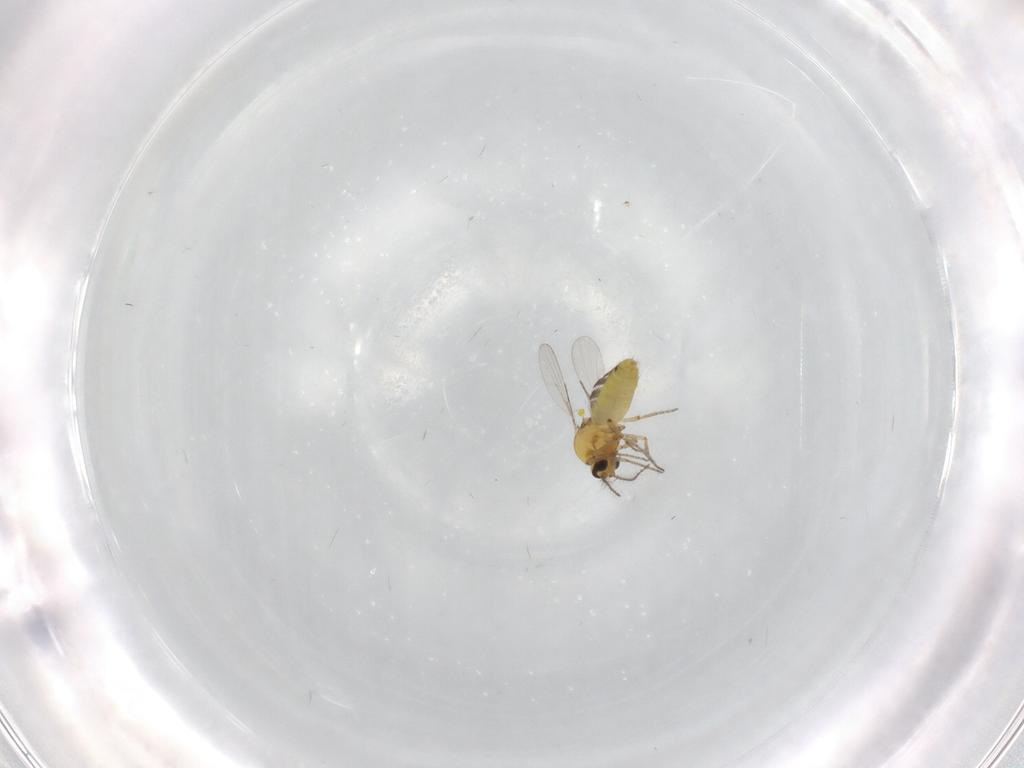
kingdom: Animalia
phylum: Arthropoda
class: Insecta
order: Diptera
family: Ceratopogonidae
